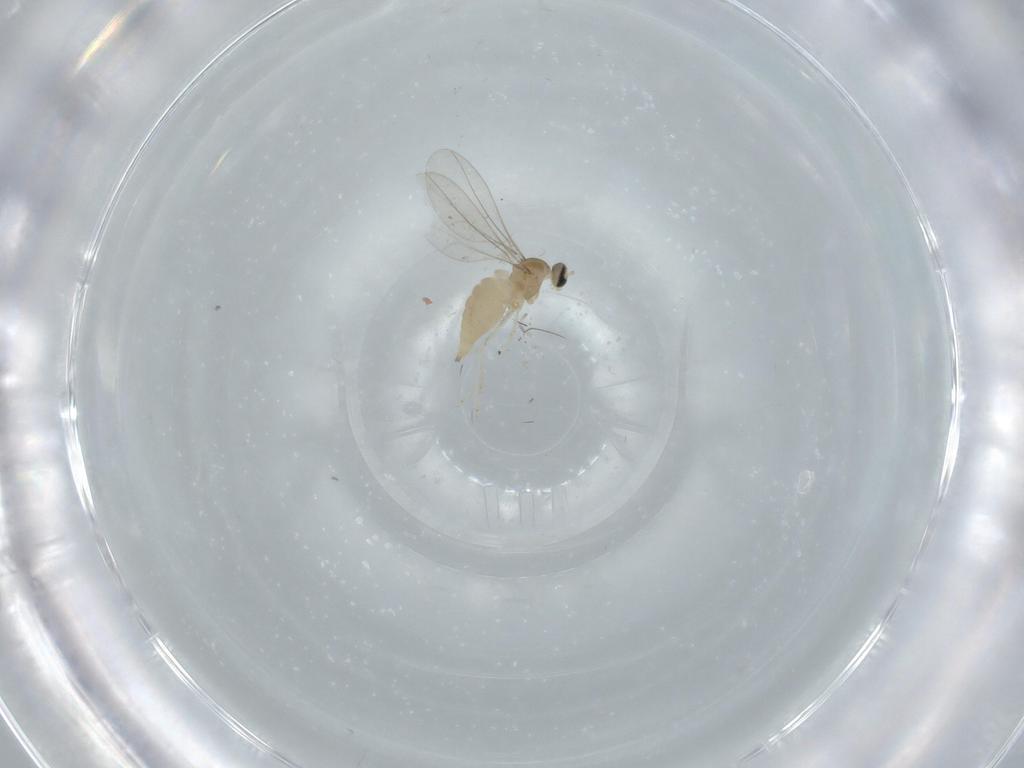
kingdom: Animalia
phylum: Arthropoda
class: Insecta
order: Diptera
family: Cecidomyiidae
